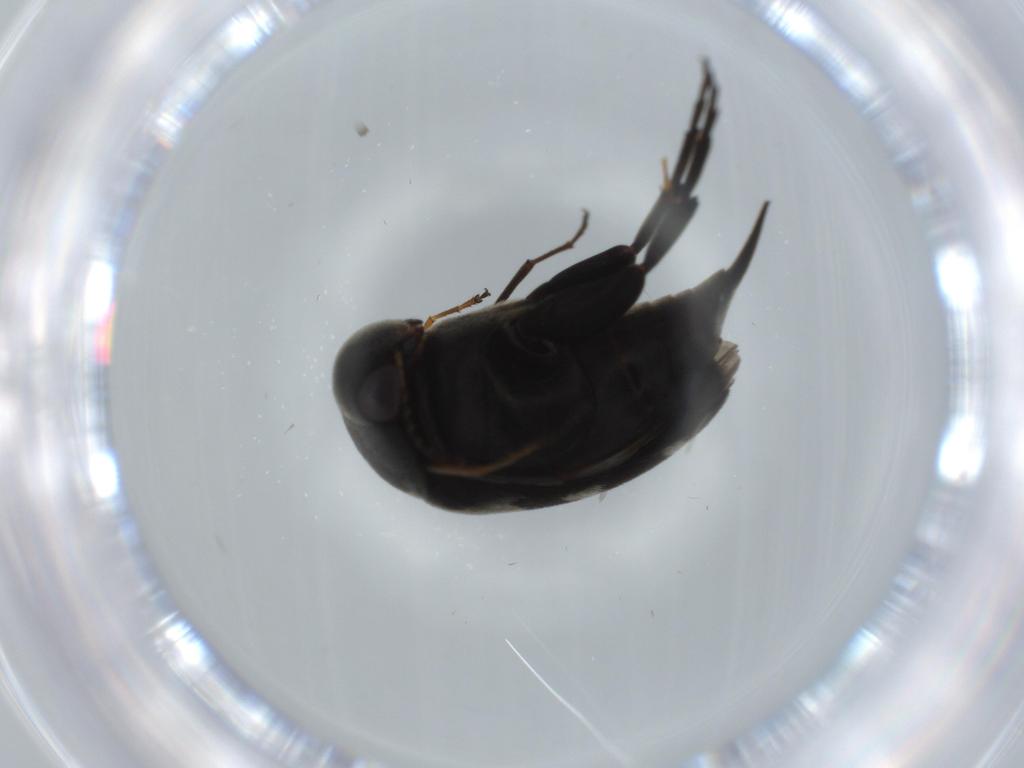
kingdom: Animalia
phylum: Arthropoda
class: Insecta
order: Coleoptera
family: Mordellidae
